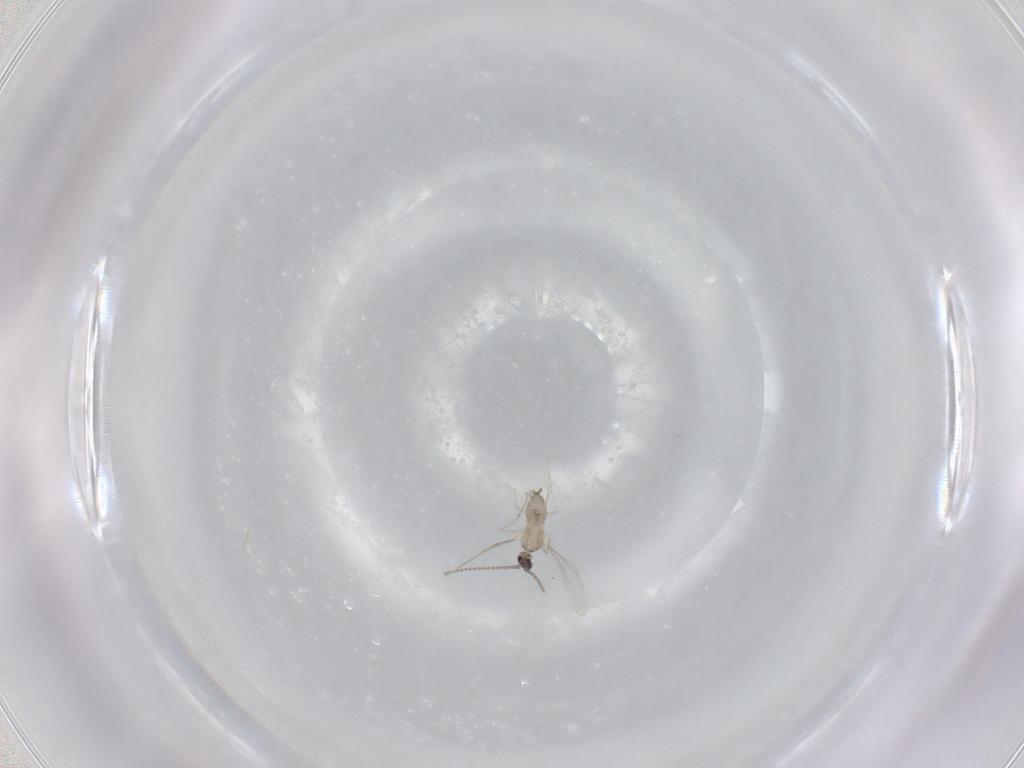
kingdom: Animalia
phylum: Arthropoda
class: Insecta
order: Diptera
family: Cecidomyiidae
